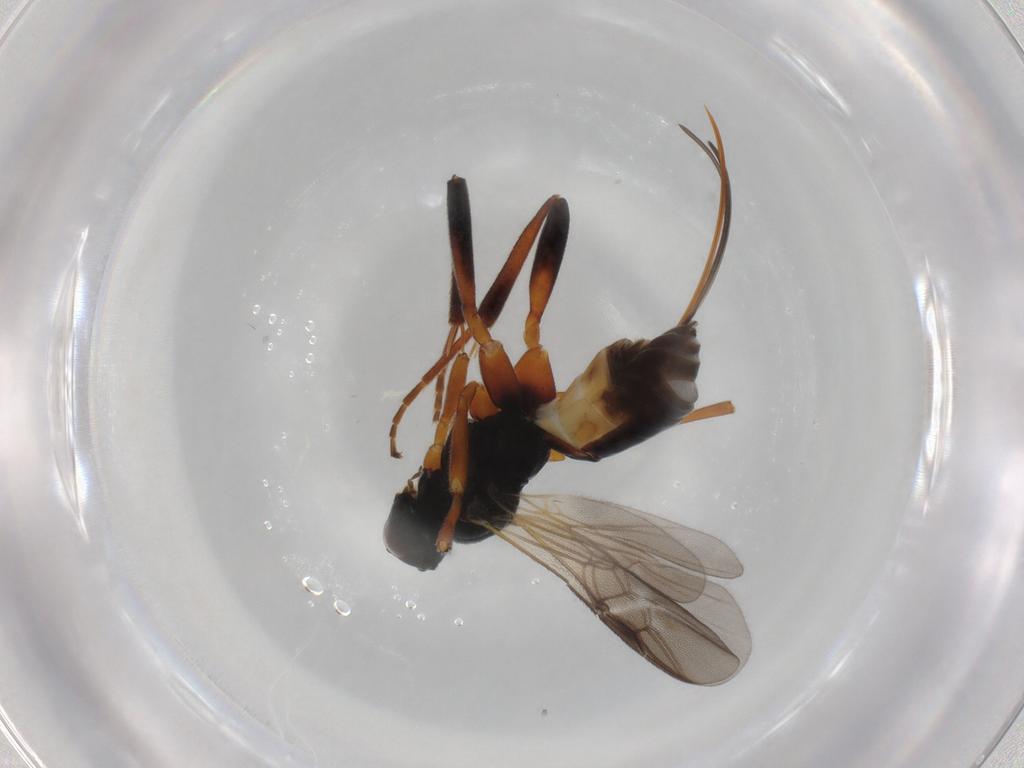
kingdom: Animalia
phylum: Arthropoda
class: Insecta
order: Hymenoptera
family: Braconidae
